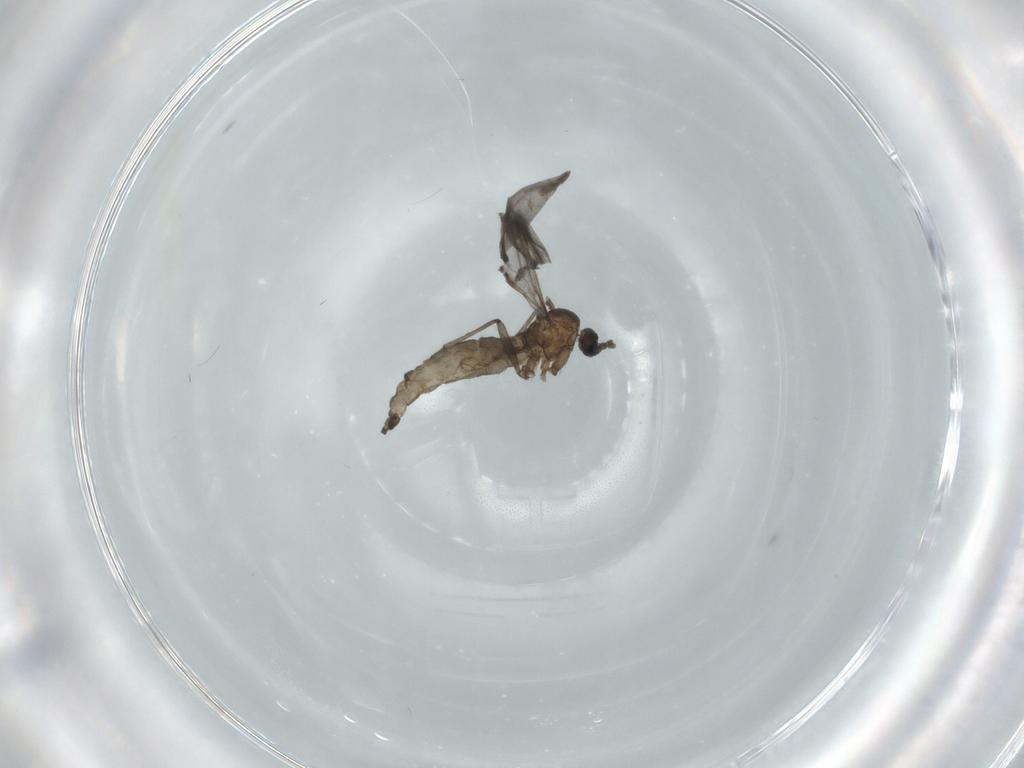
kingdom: Animalia
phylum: Arthropoda
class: Insecta
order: Diptera
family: Sciaridae
